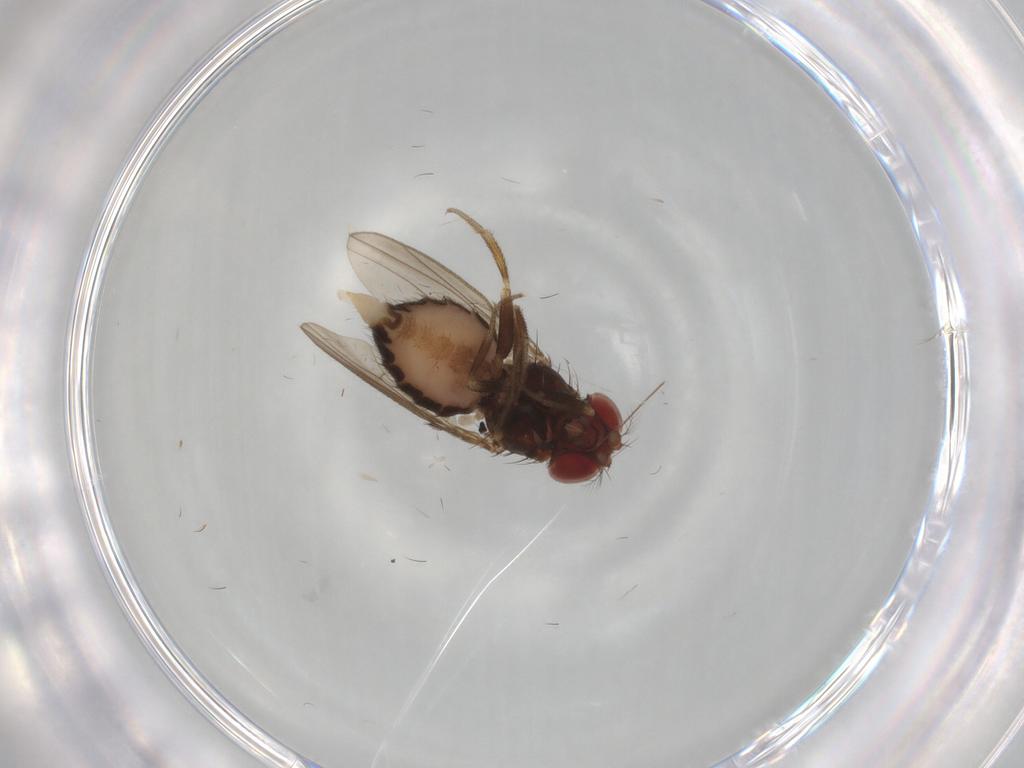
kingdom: Animalia
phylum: Arthropoda
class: Insecta
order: Diptera
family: Drosophilidae
